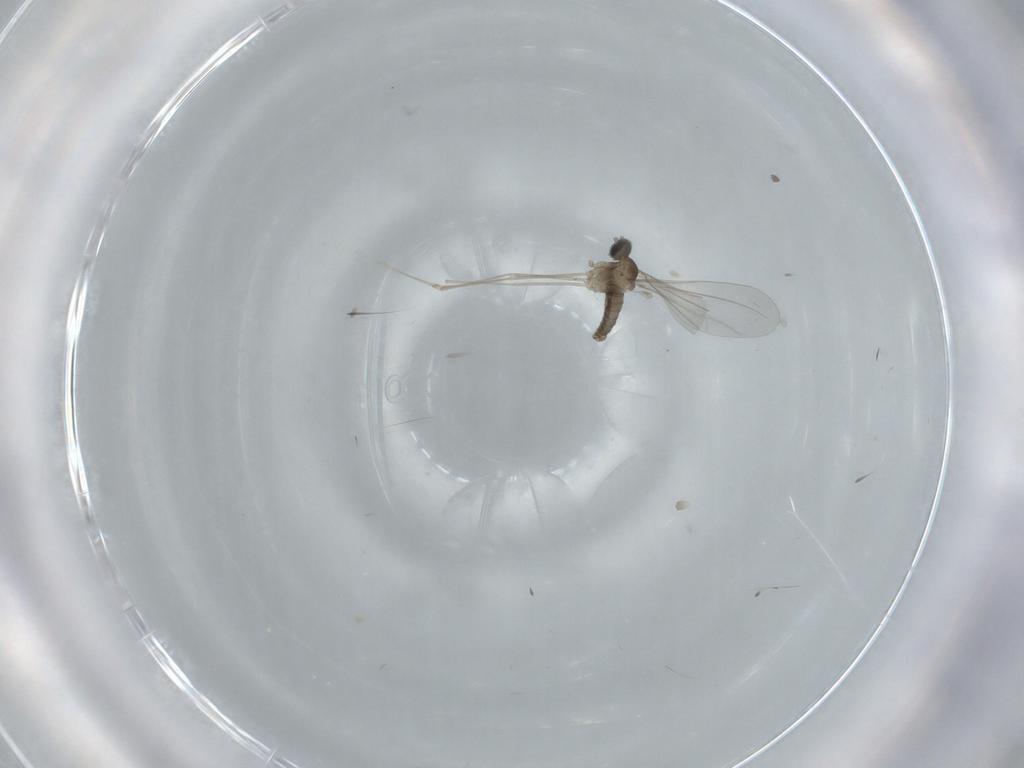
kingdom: Animalia
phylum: Arthropoda
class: Insecta
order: Diptera
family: Cecidomyiidae
